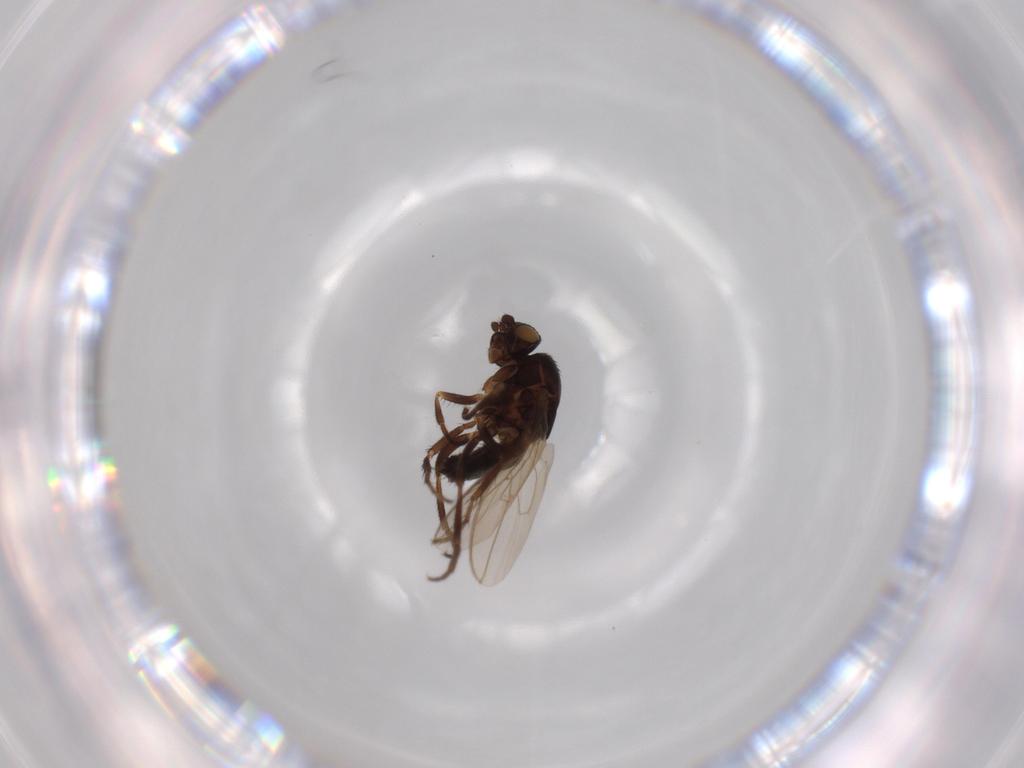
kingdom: Animalia
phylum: Arthropoda
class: Insecta
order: Diptera
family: Sphaeroceridae
